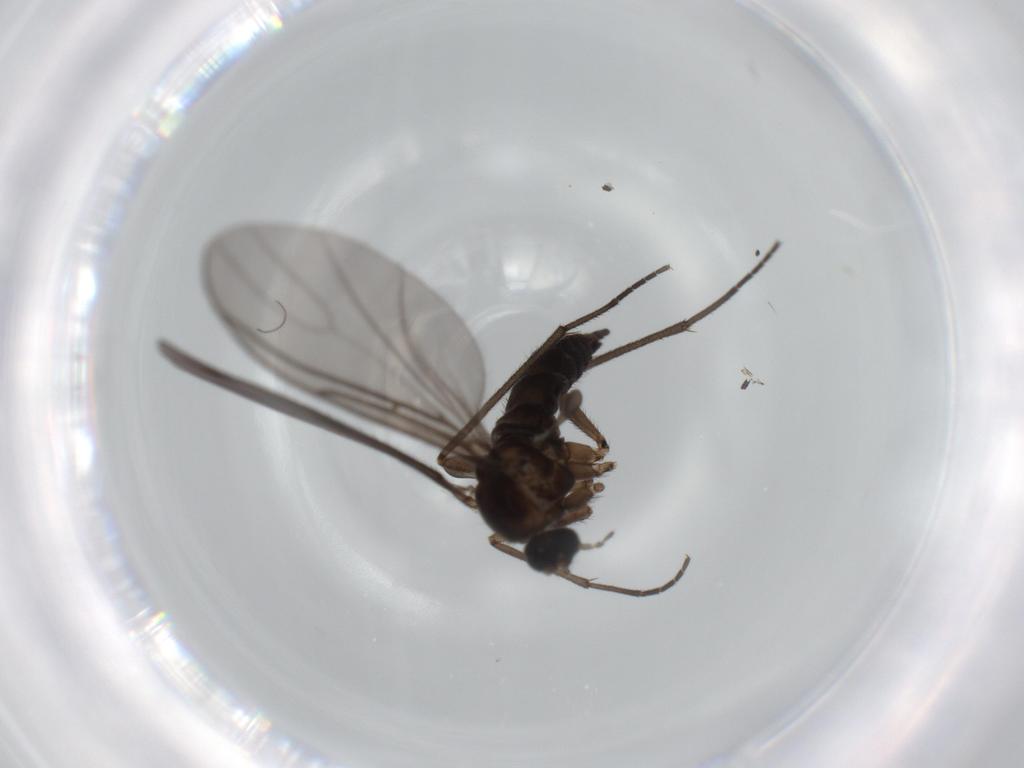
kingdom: Animalia
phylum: Arthropoda
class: Insecta
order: Diptera
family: Sciaridae
